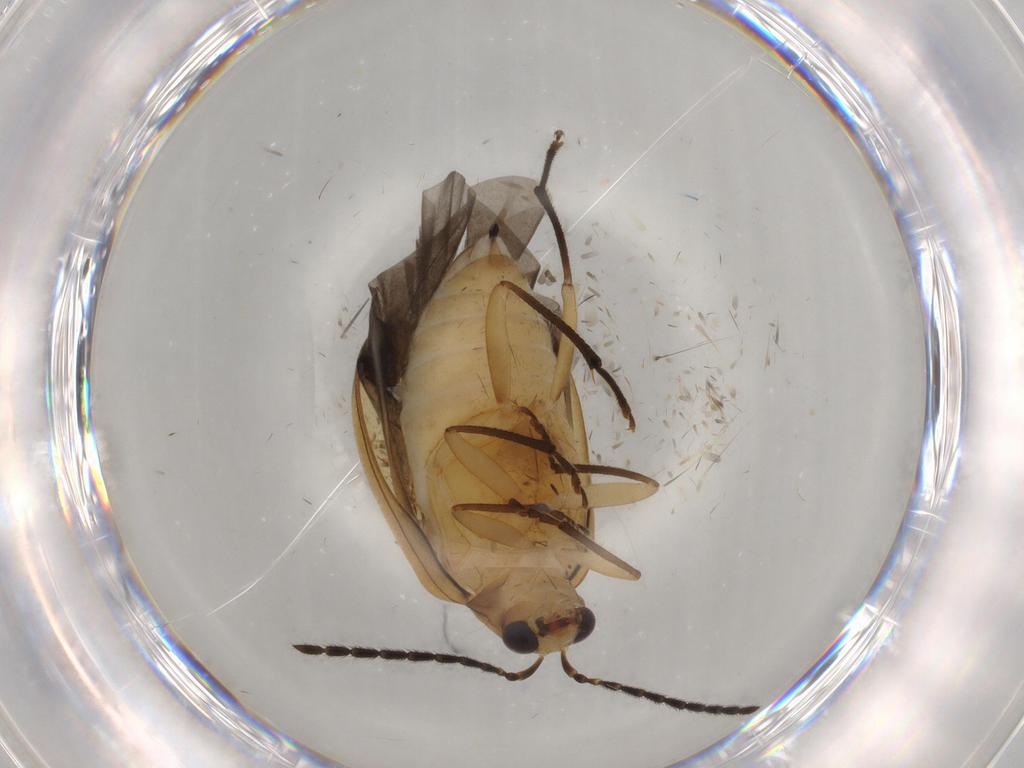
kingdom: Animalia
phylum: Arthropoda
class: Insecta
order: Coleoptera
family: Chrysomelidae
